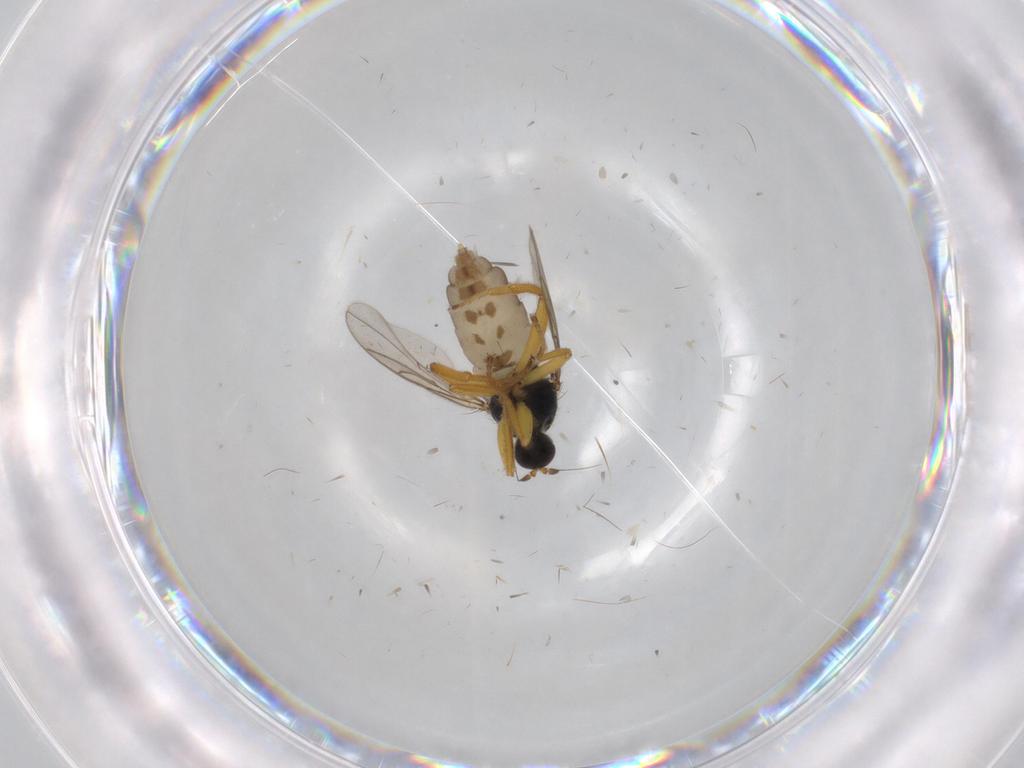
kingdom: Animalia
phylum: Arthropoda
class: Insecta
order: Diptera
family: Hybotidae
